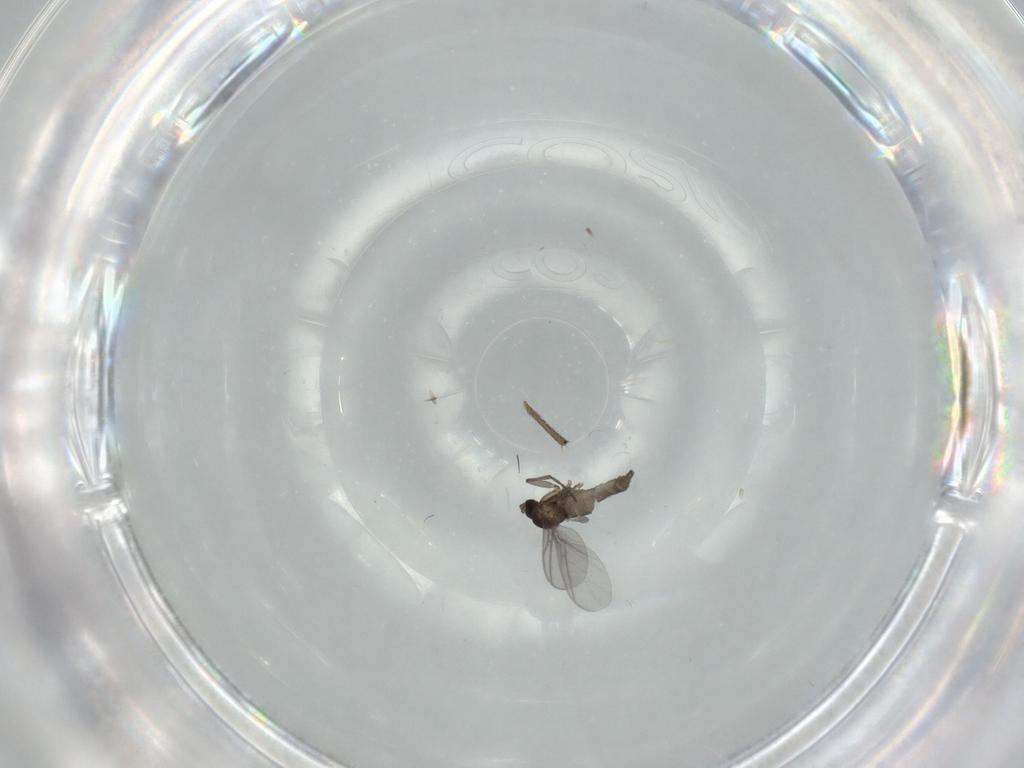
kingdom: Animalia
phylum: Arthropoda
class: Insecta
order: Diptera
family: Sciaridae
